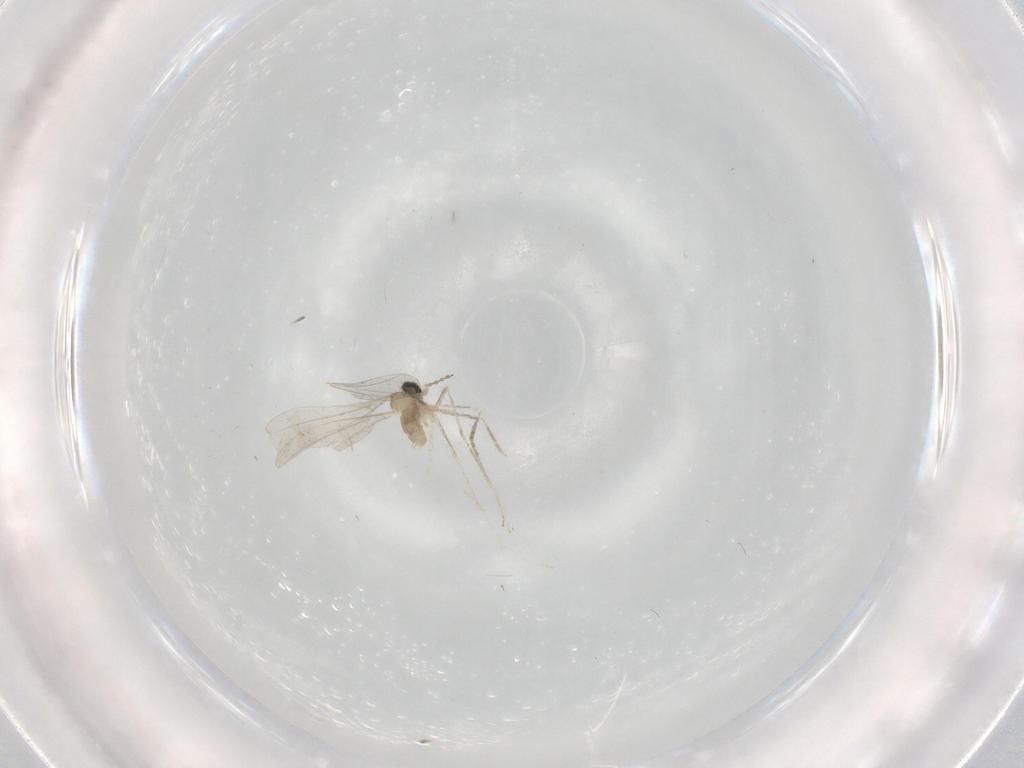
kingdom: Animalia
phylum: Arthropoda
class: Insecta
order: Diptera
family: Cecidomyiidae
